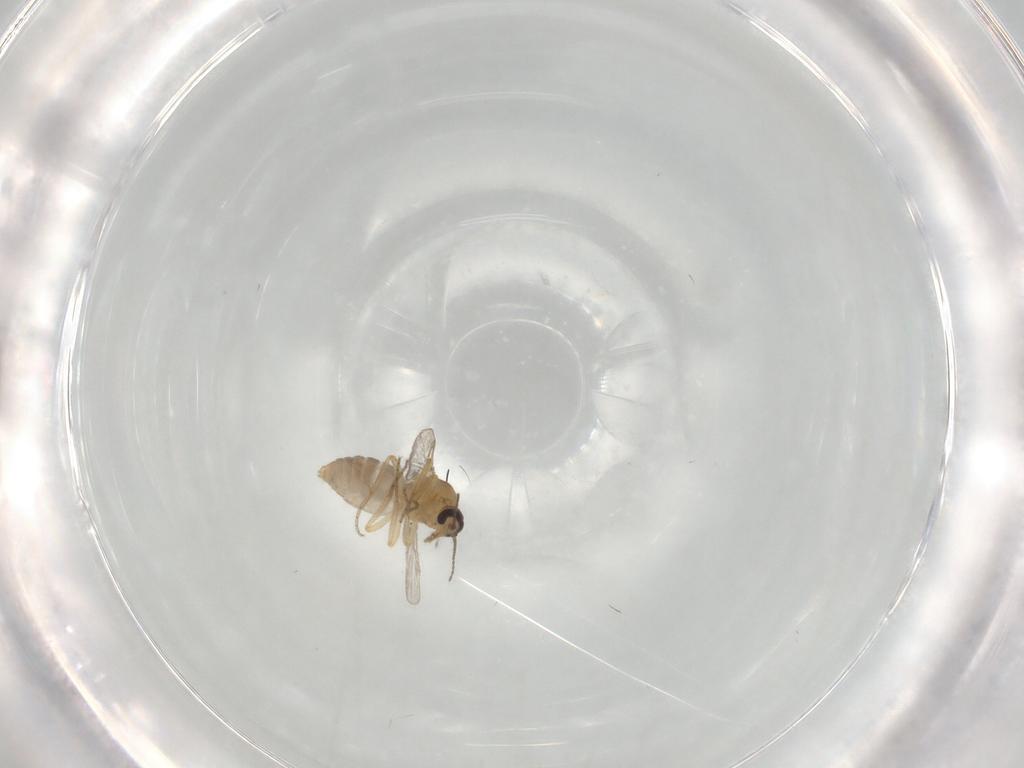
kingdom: Animalia
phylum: Arthropoda
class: Insecta
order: Diptera
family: Ceratopogonidae
